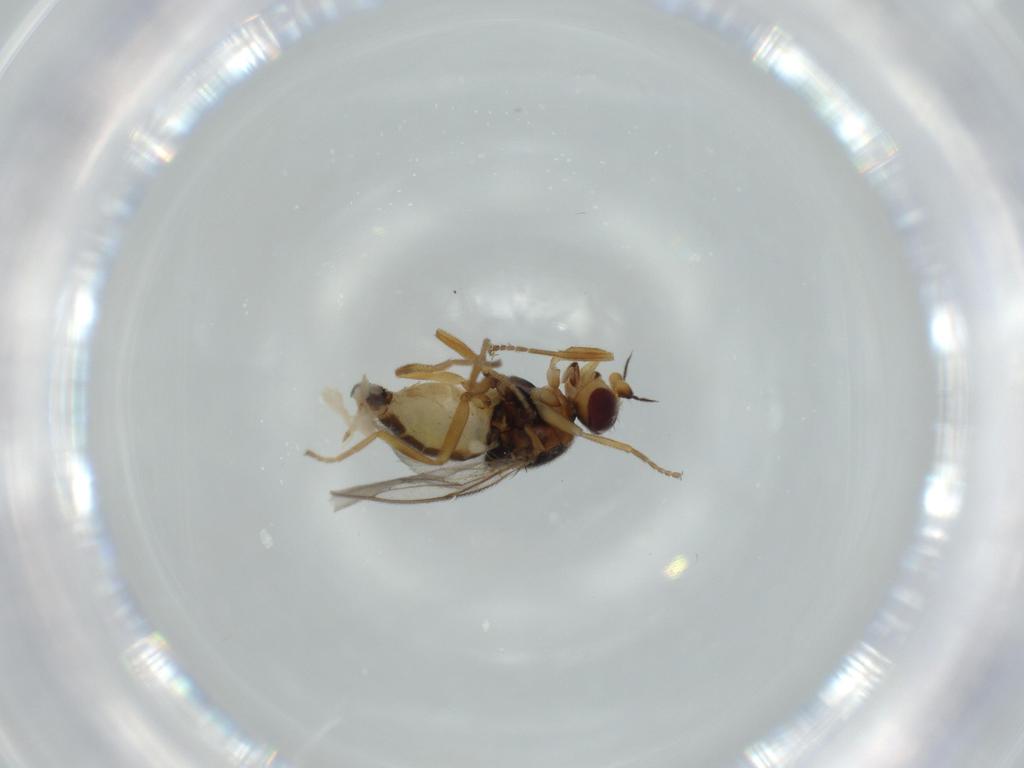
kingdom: Animalia
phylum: Arthropoda
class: Insecta
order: Diptera
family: Chloropidae
